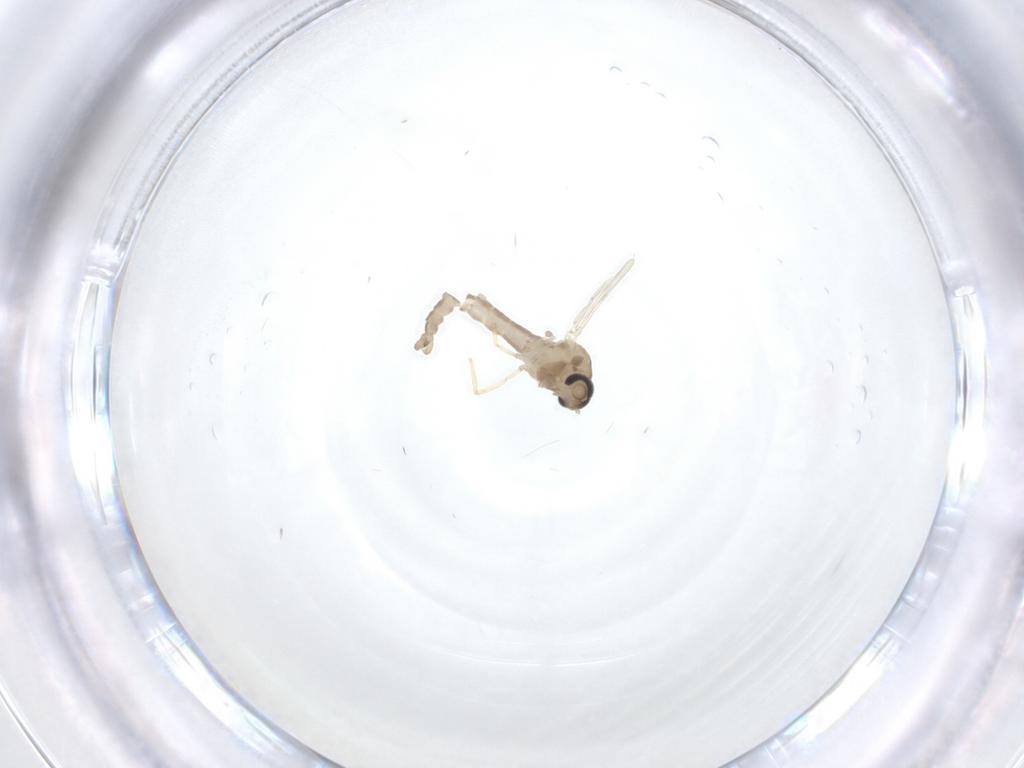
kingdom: Animalia
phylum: Arthropoda
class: Insecta
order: Diptera
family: Ceratopogonidae
